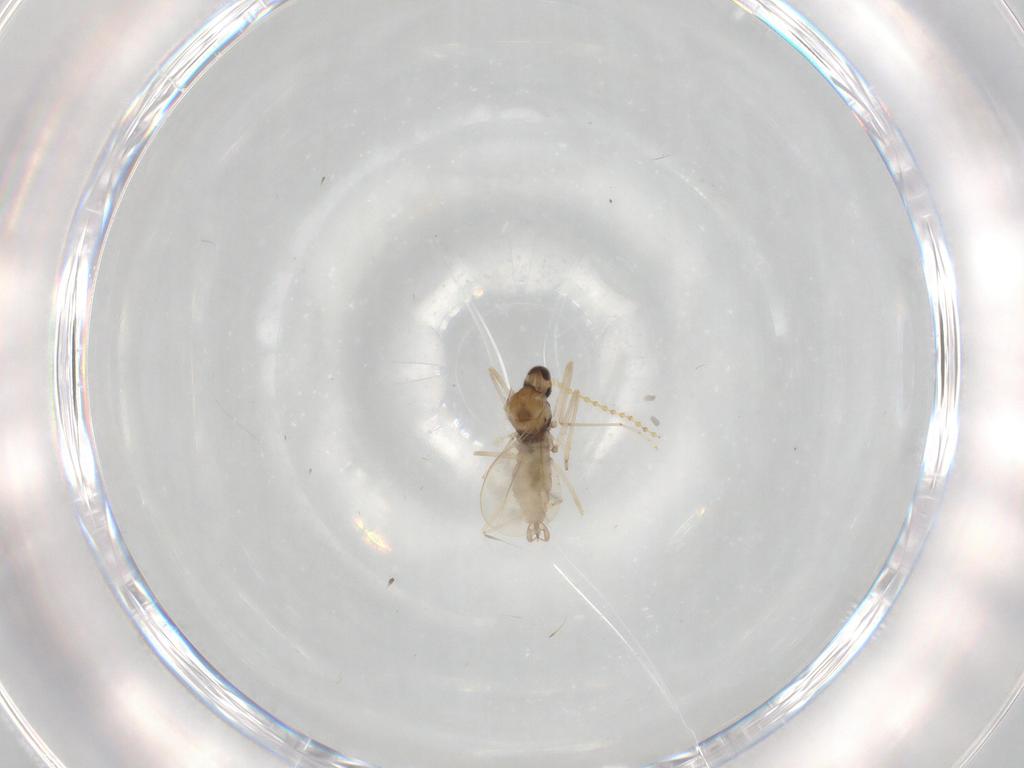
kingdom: Animalia
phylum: Arthropoda
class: Insecta
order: Diptera
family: Cecidomyiidae
